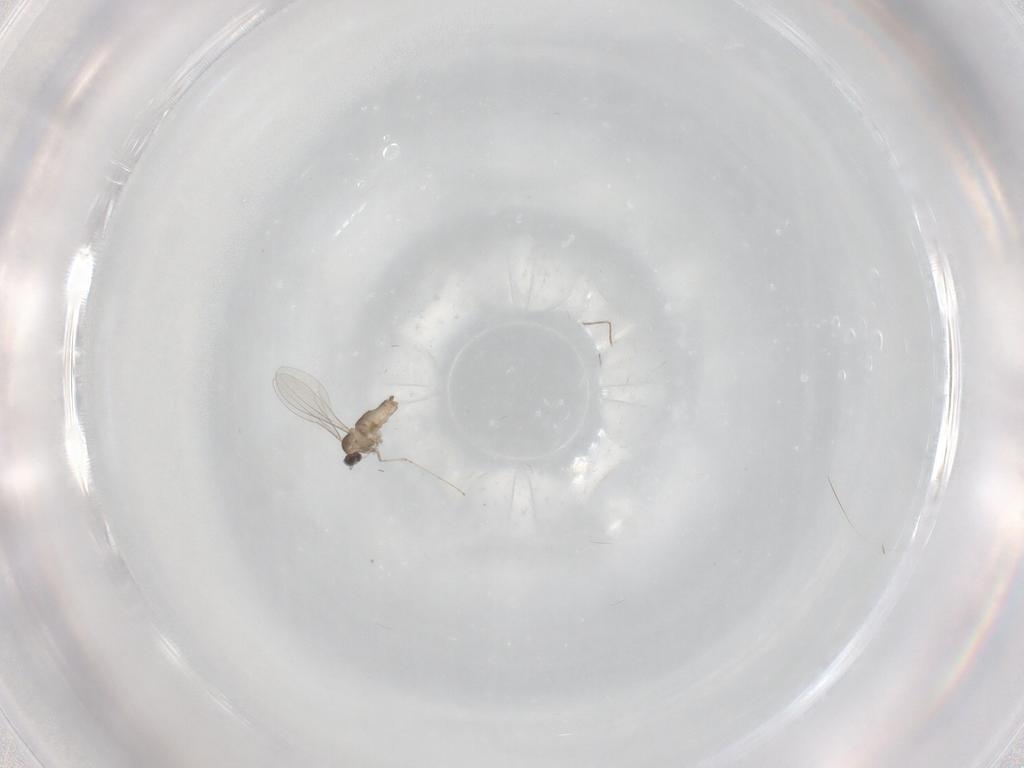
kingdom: Animalia
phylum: Arthropoda
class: Insecta
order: Diptera
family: Cecidomyiidae
